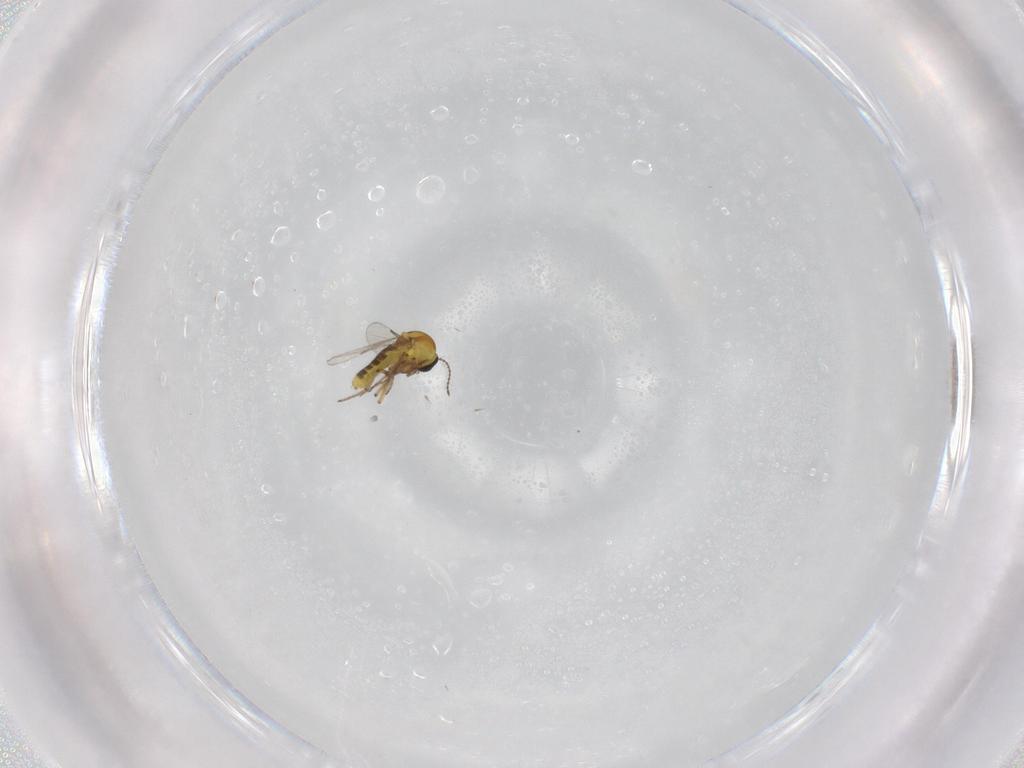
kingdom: Animalia
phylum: Arthropoda
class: Insecta
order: Diptera
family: Ceratopogonidae
